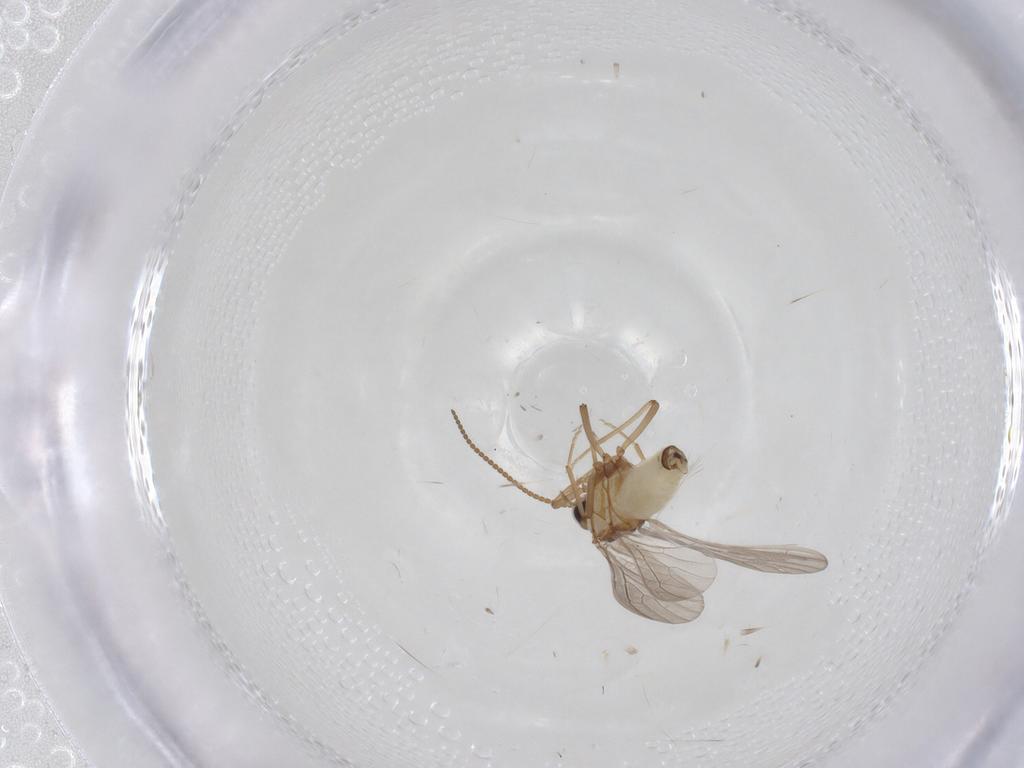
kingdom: Animalia
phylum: Arthropoda
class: Insecta
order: Neuroptera
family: Coniopterygidae
